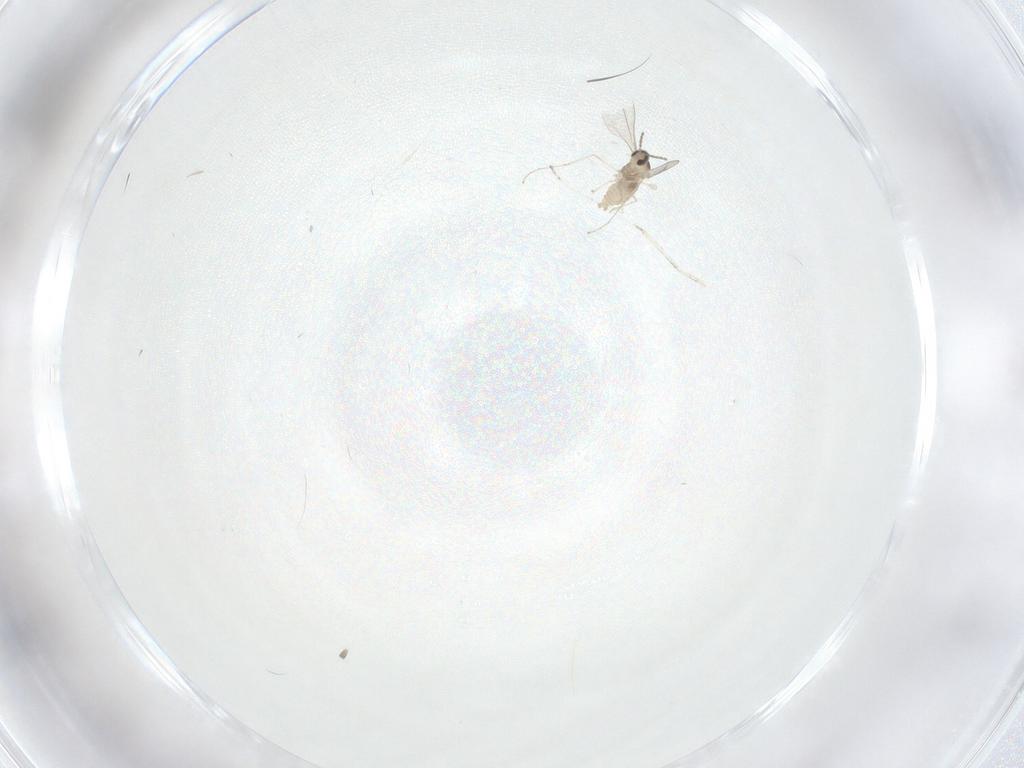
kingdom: Animalia
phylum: Arthropoda
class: Insecta
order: Diptera
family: Cecidomyiidae
